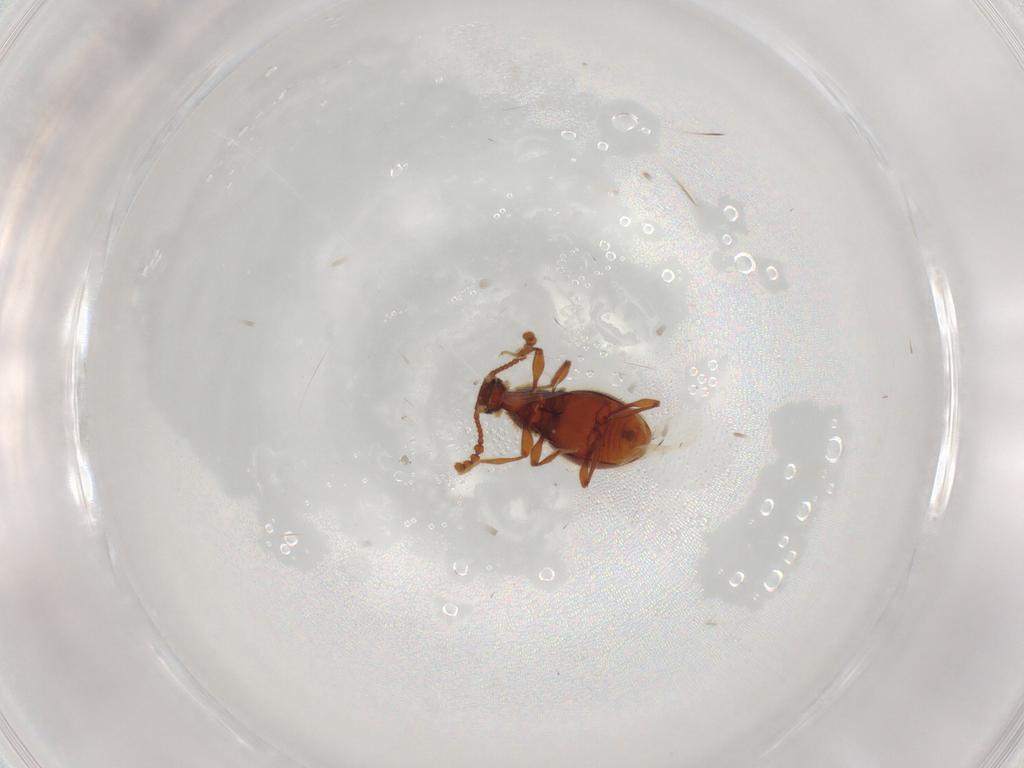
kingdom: Animalia
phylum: Arthropoda
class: Insecta
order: Coleoptera
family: Staphylinidae
